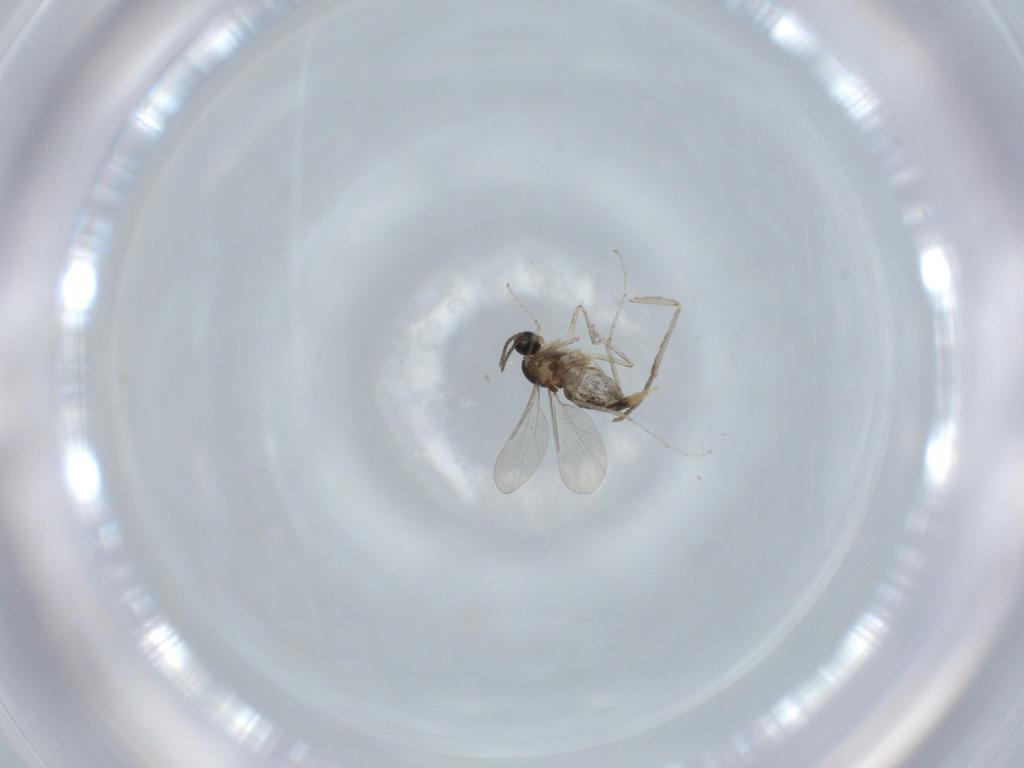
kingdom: Animalia
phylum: Arthropoda
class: Insecta
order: Diptera
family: Cecidomyiidae
